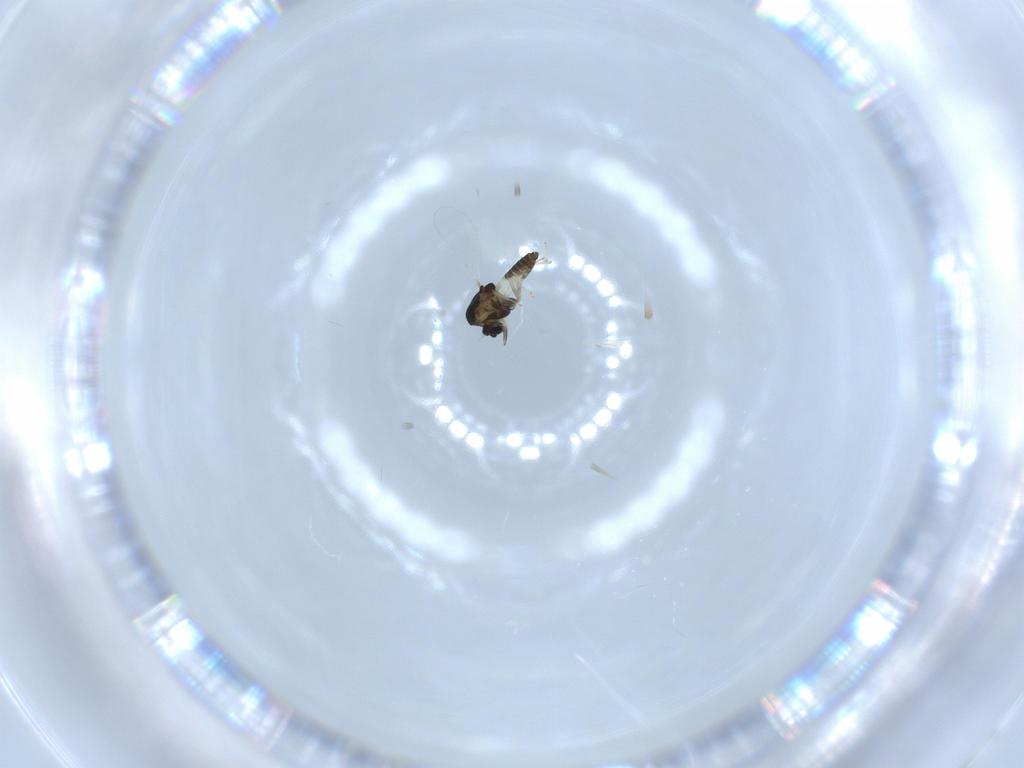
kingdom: Animalia
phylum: Arthropoda
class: Insecta
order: Diptera
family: Chironomidae
